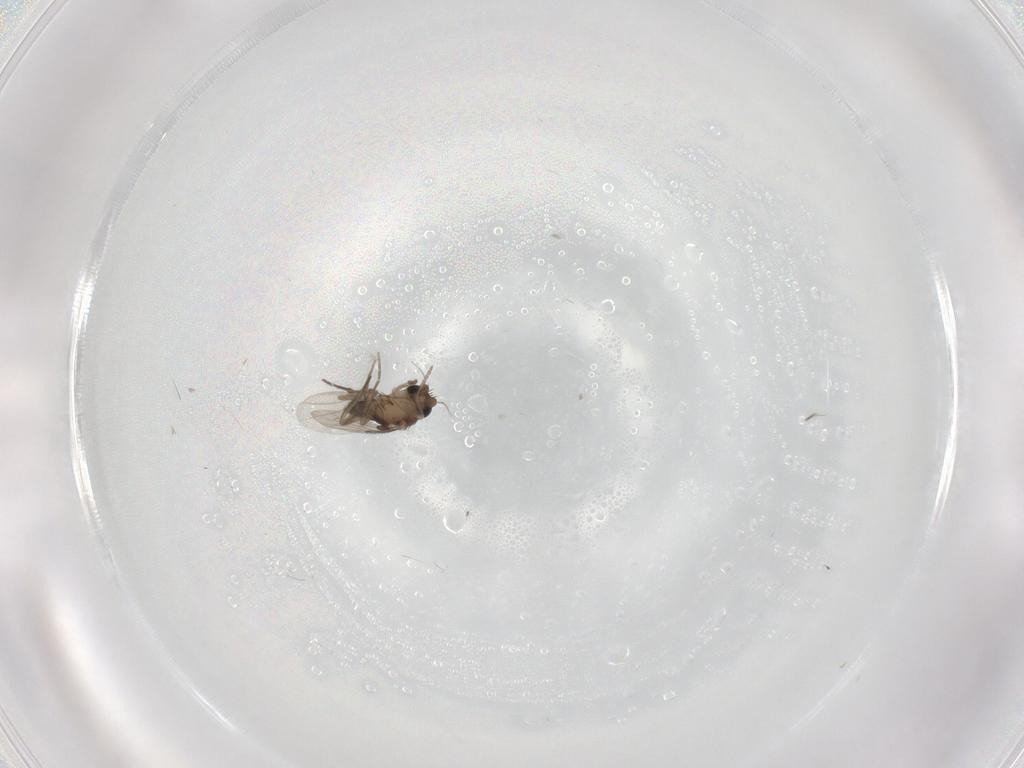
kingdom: Animalia
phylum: Arthropoda
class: Insecta
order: Diptera
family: Phoridae
